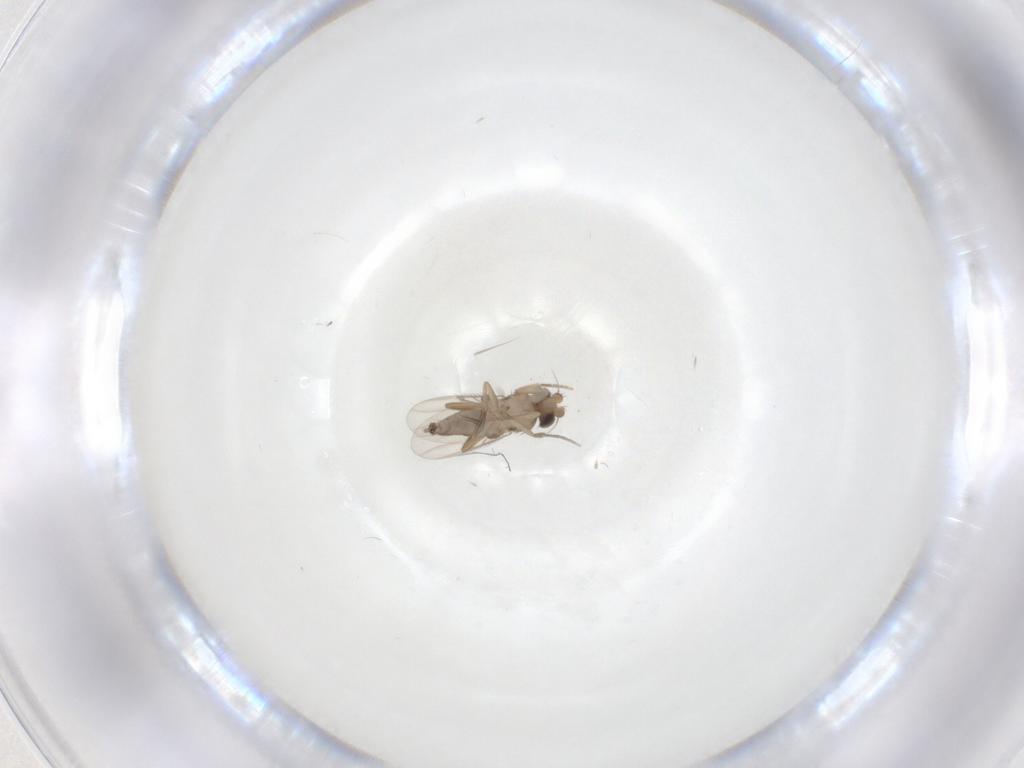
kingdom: Animalia
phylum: Arthropoda
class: Insecta
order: Diptera
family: Phoridae
